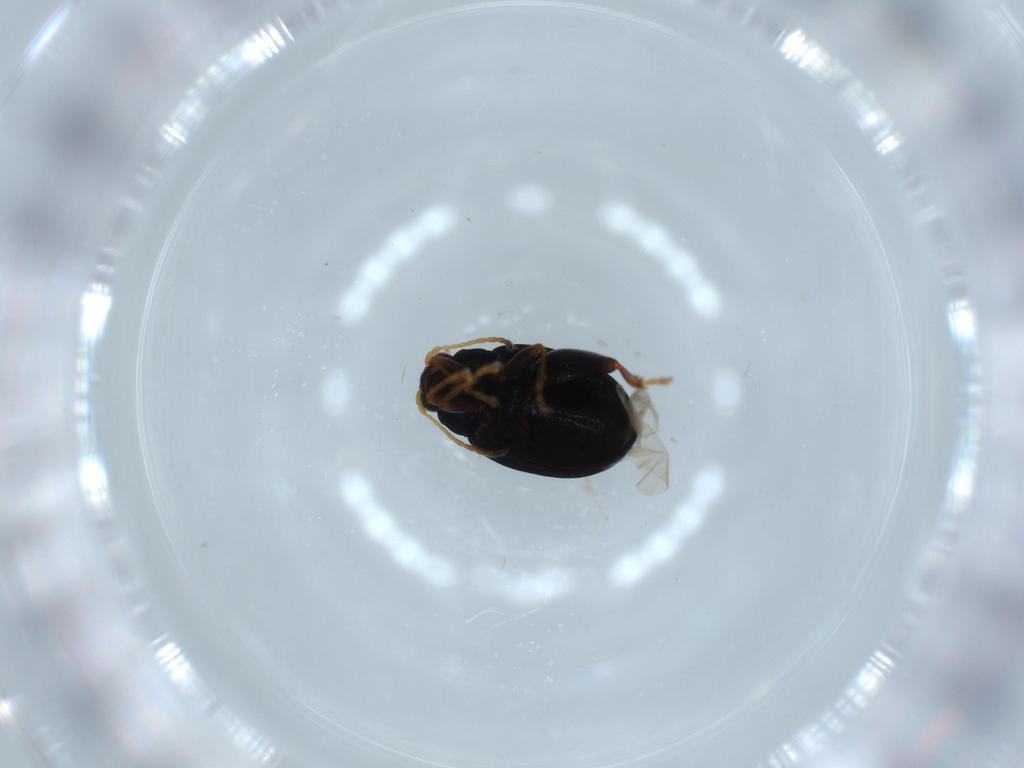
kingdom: Animalia
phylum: Arthropoda
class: Insecta
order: Coleoptera
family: Chrysomelidae
